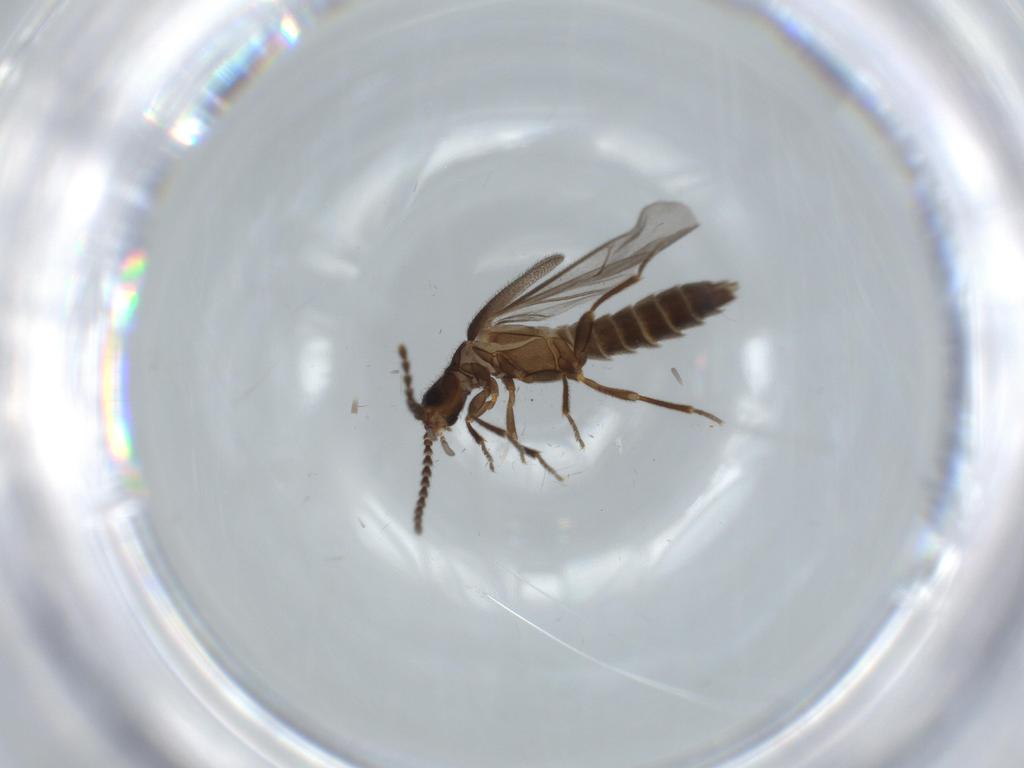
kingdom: Animalia
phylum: Arthropoda
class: Insecta
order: Coleoptera
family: Omethidae
